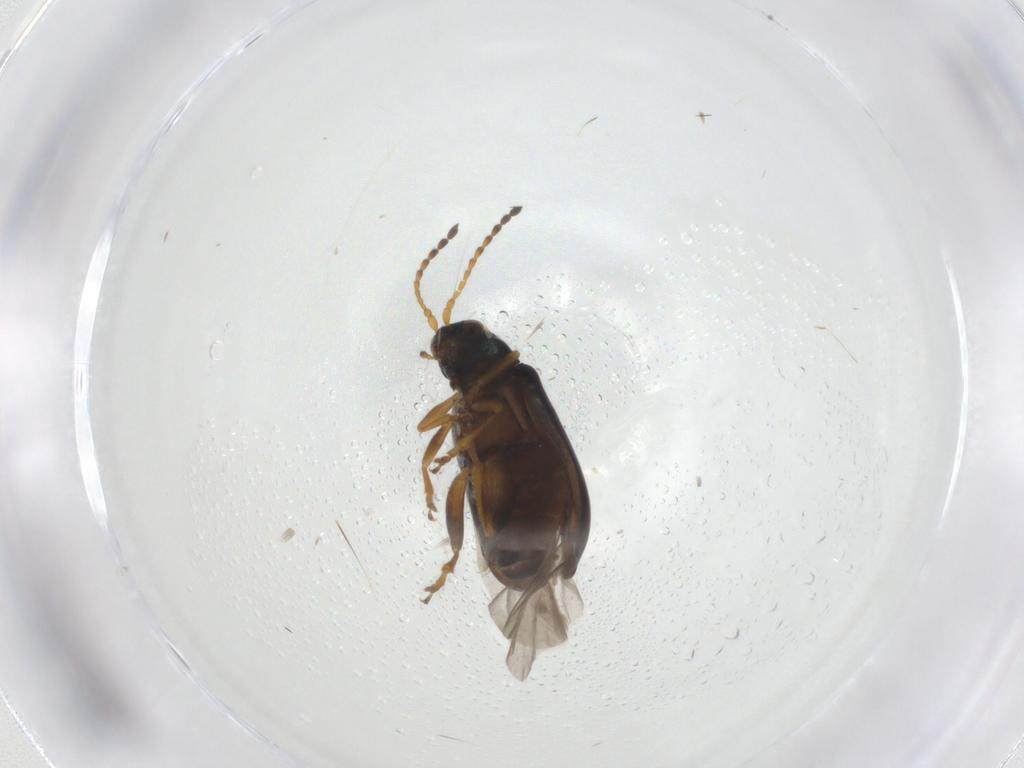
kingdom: Animalia
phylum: Arthropoda
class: Insecta
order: Coleoptera
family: Chrysomelidae
